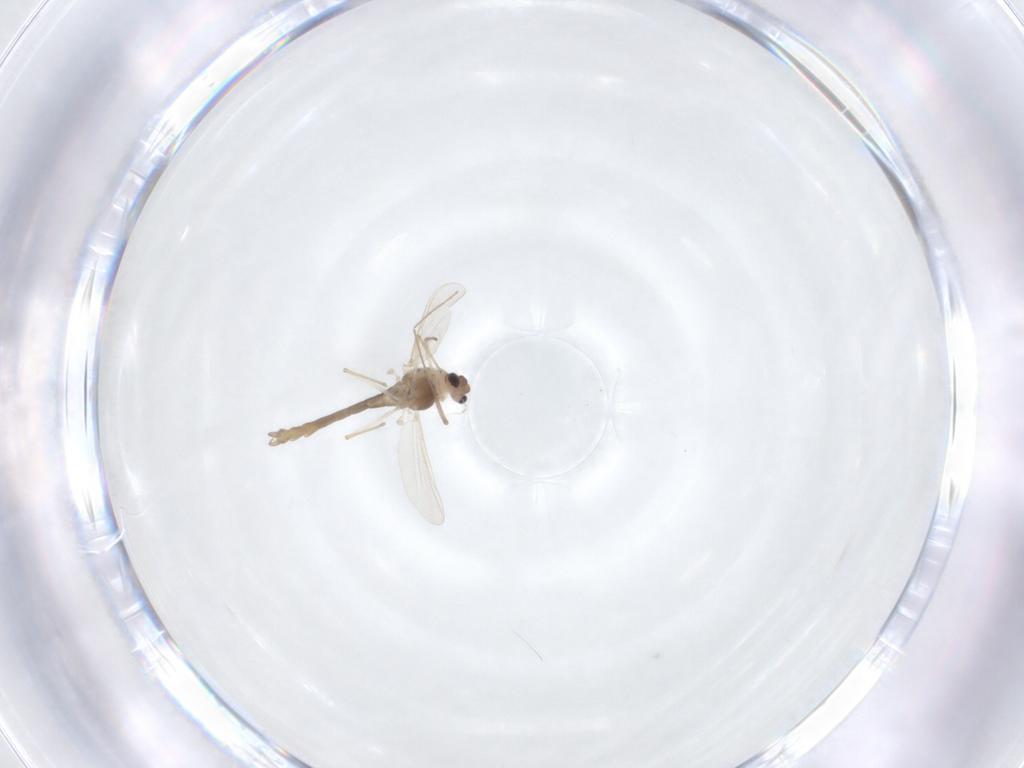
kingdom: Animalia
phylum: Arthropoda
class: Insecta
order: Diptera
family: Chironomidae
